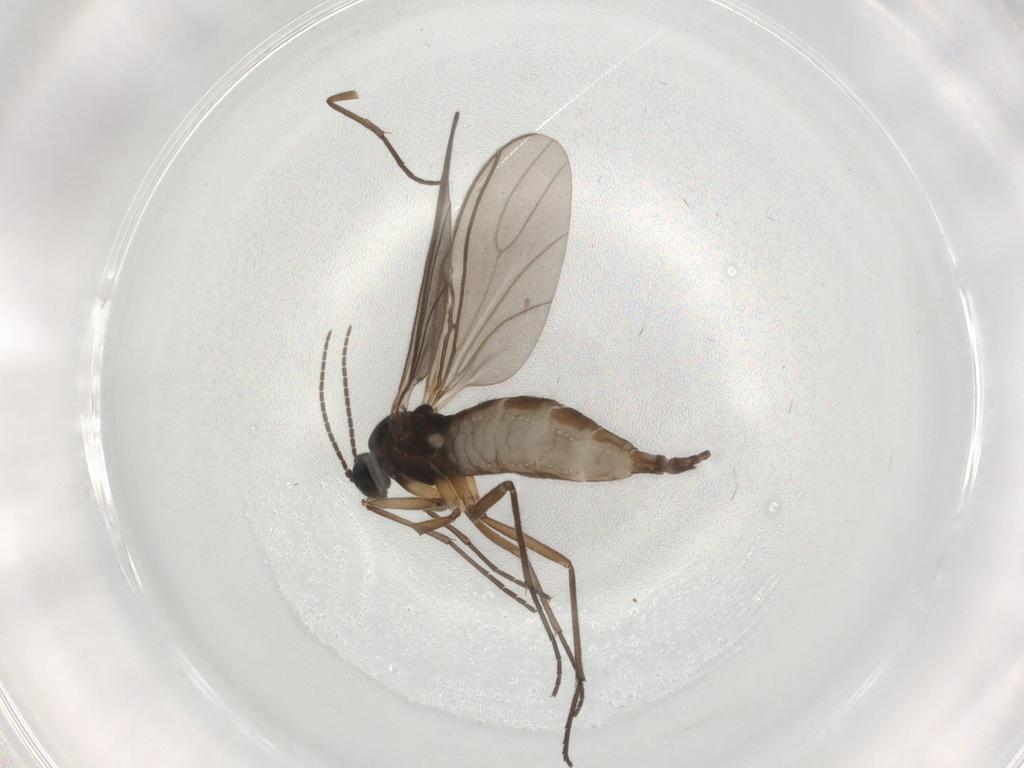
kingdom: Animalia
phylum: Arthropoda
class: Insecta
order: Diptera
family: Sciaridae
